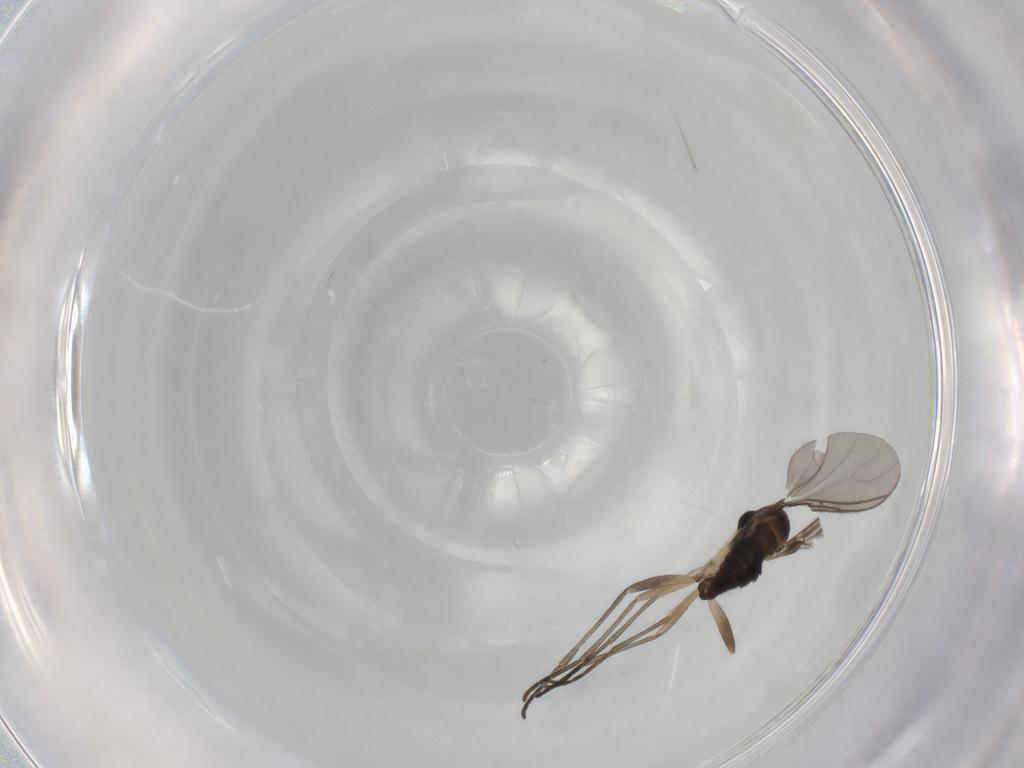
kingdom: Animalia
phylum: Arthropoda
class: Insecta
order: Diptera
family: Sciaridae
